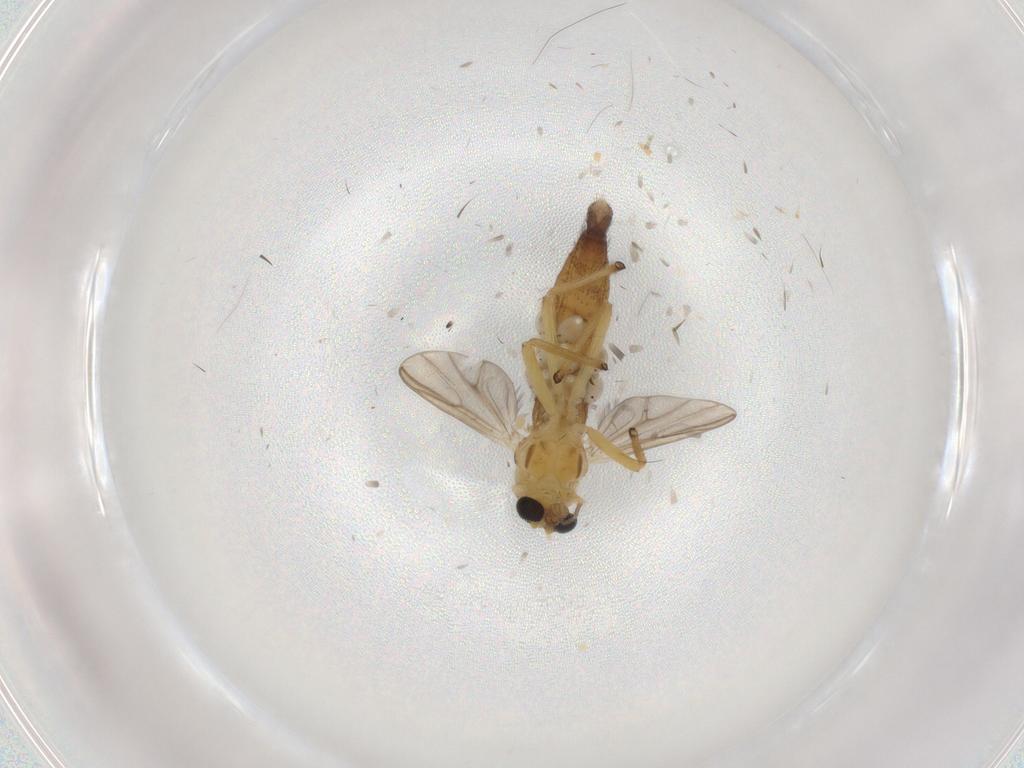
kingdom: Animalia
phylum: Arthropoda
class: Insecta
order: Diptera
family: Chironomidae
